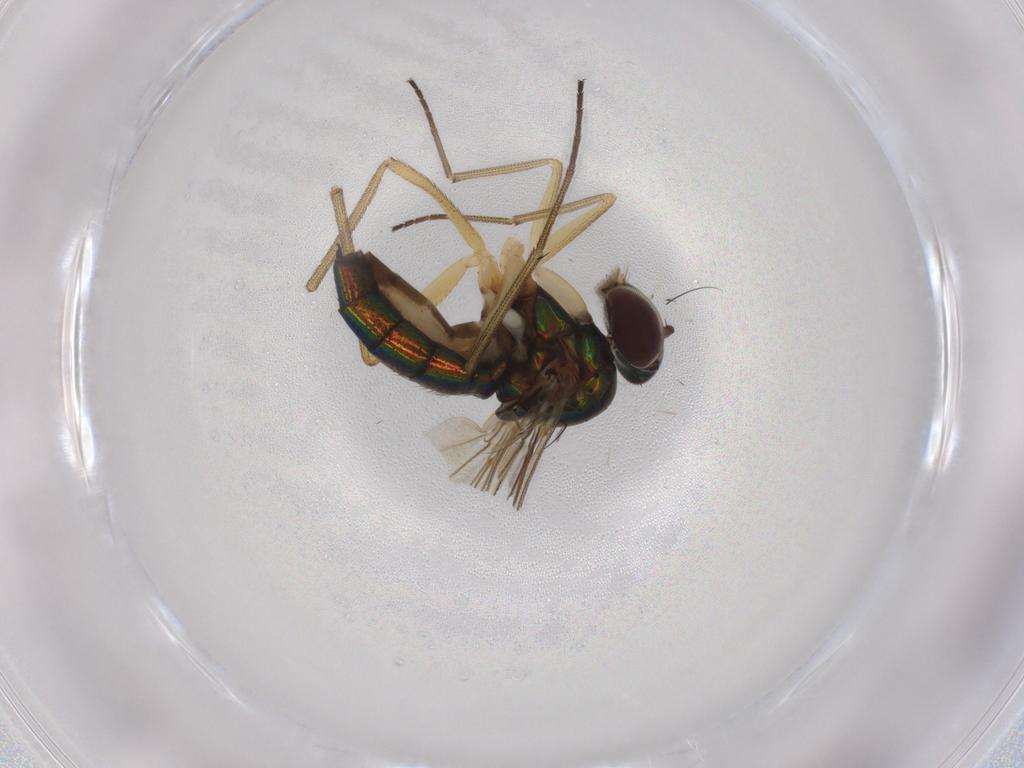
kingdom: Animalia
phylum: Arthropoda
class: Insecta
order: Diptera
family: Dolichopodidae
